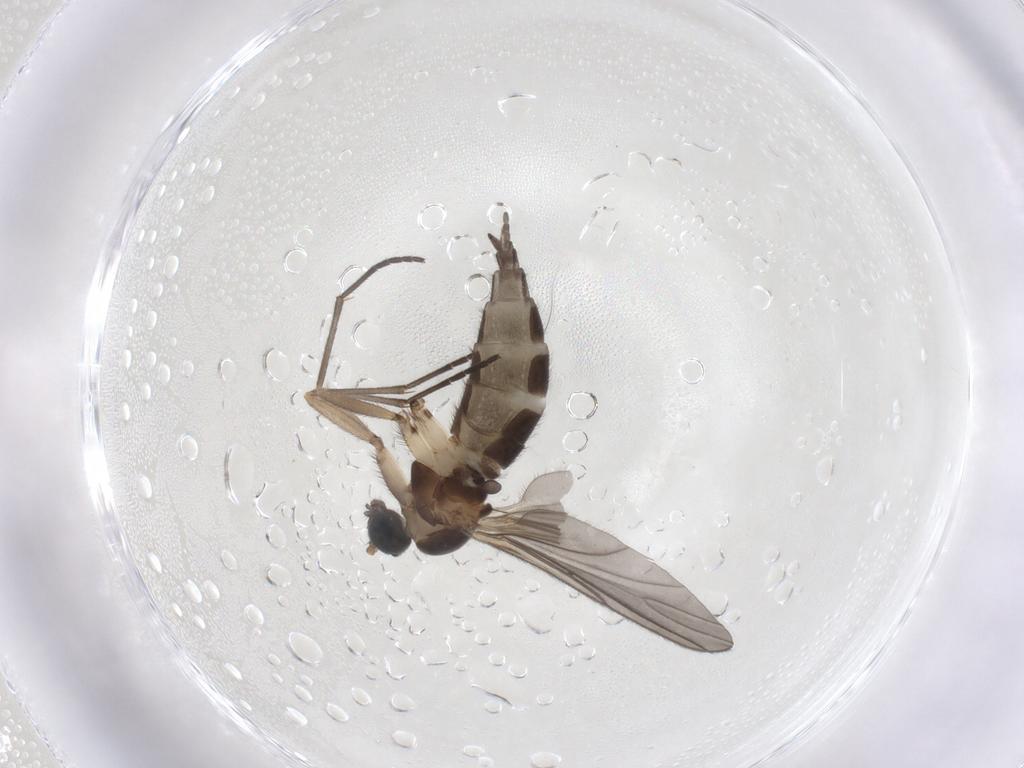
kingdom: Animalia
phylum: Arthropoda
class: Insecta
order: Diptera
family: Sciaridae
